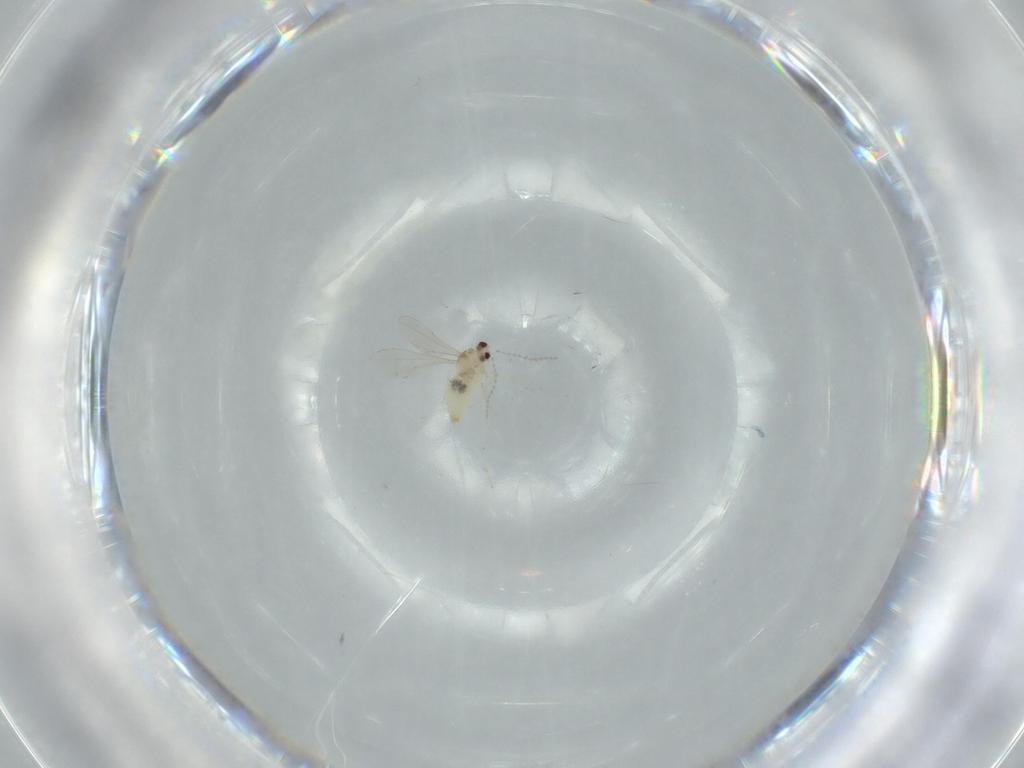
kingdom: Animalia
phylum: Arthropoda
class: Insecta
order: Diptera
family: Cecidomyiidae
